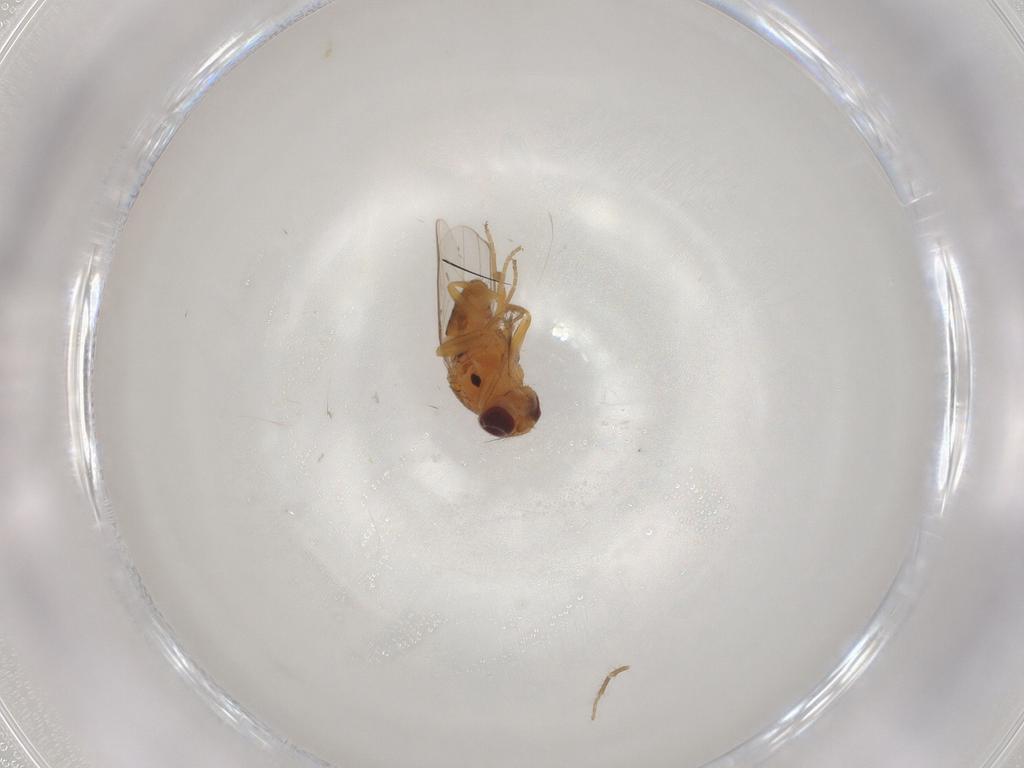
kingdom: Animalia
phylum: Arthropoda
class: Insecta
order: Diptera
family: Chloropidae
